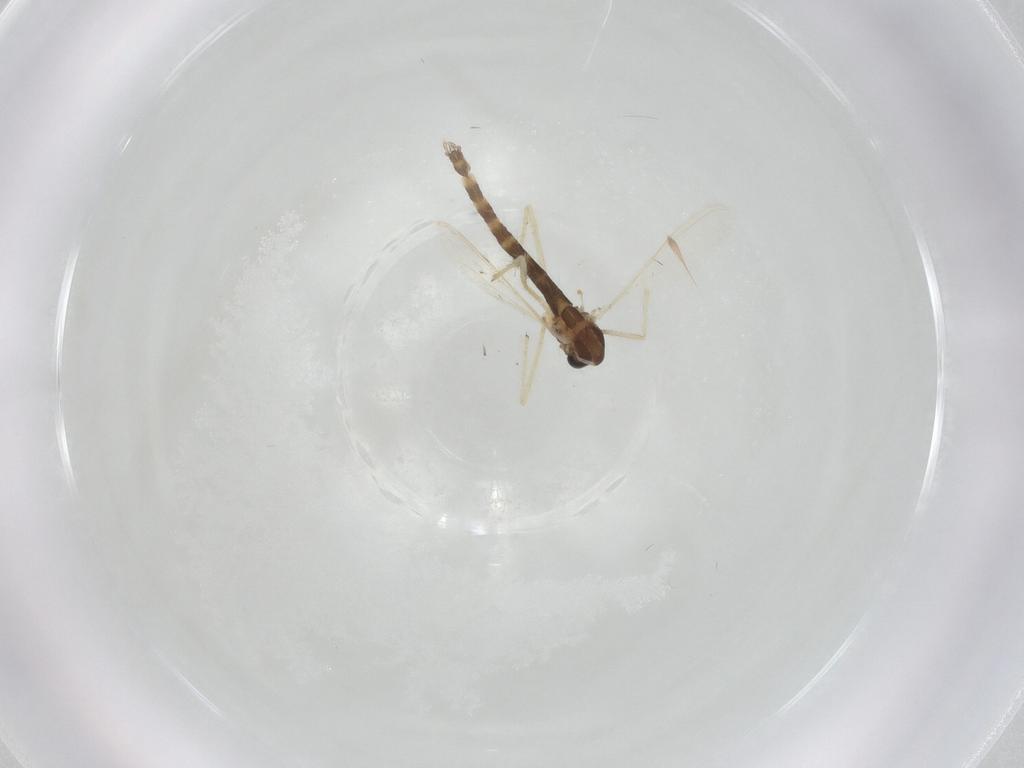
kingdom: Animalia
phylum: Arthropoda
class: Insecta
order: Diptera
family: Chironomidae
